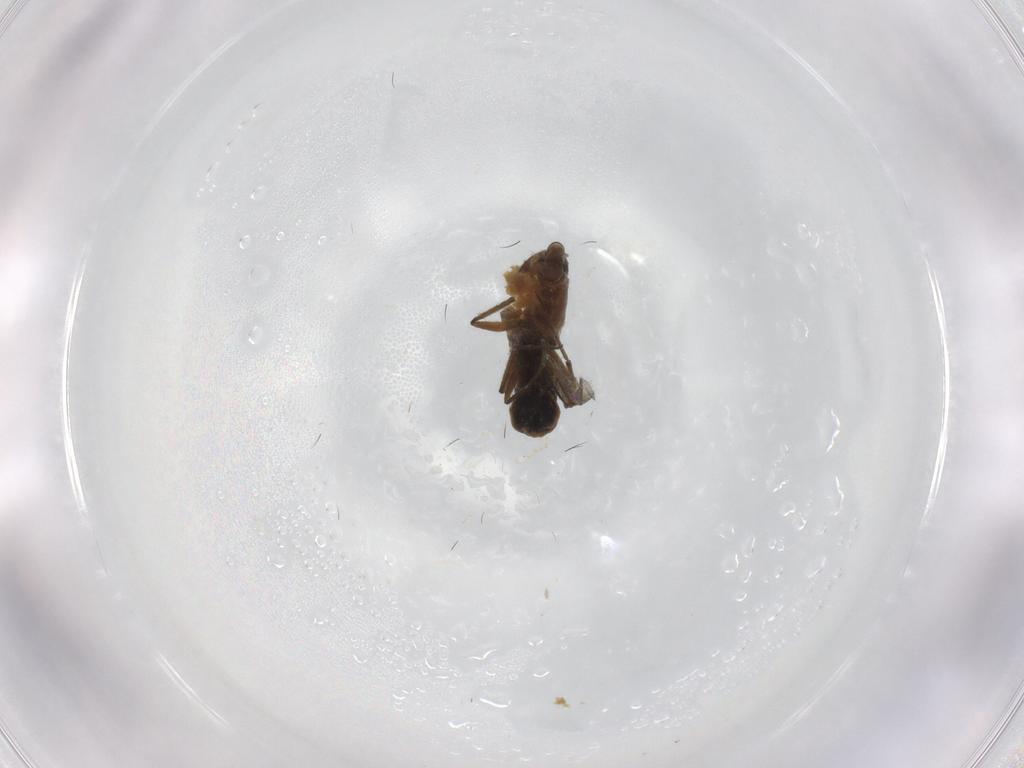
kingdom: Animalia
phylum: Arthropoda
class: Insecta
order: Diptera
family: Cecidomyiidae
